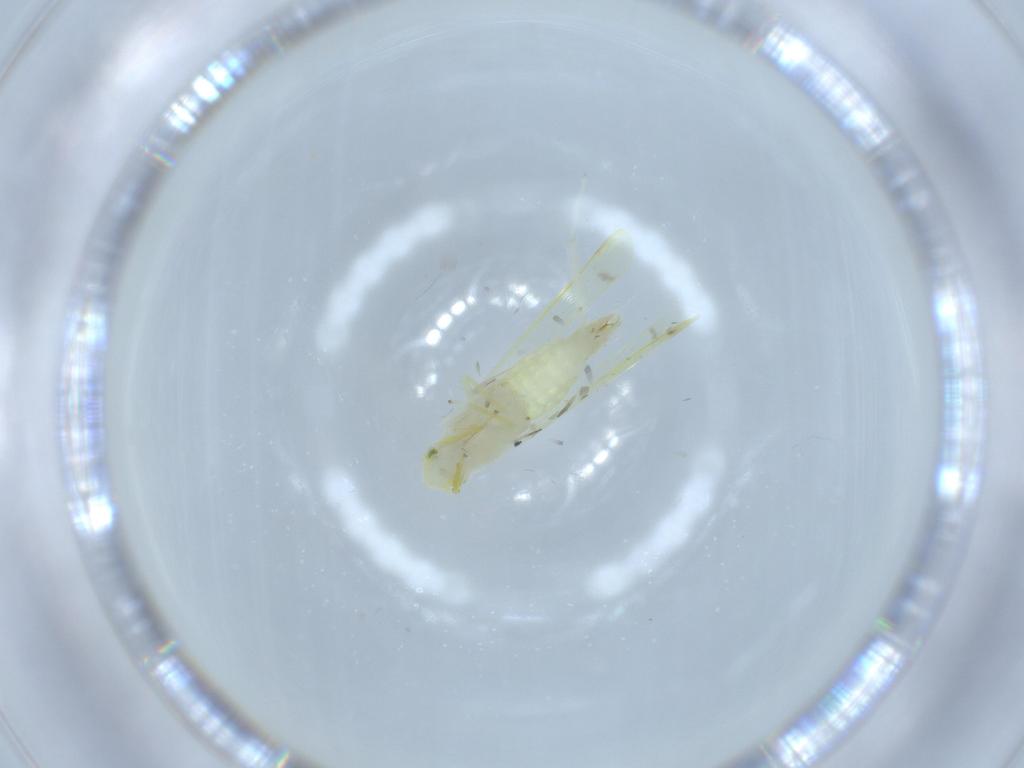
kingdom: Animalia
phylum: Arthropoda
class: Insecta
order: Hemiptera
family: Cicadellidae
